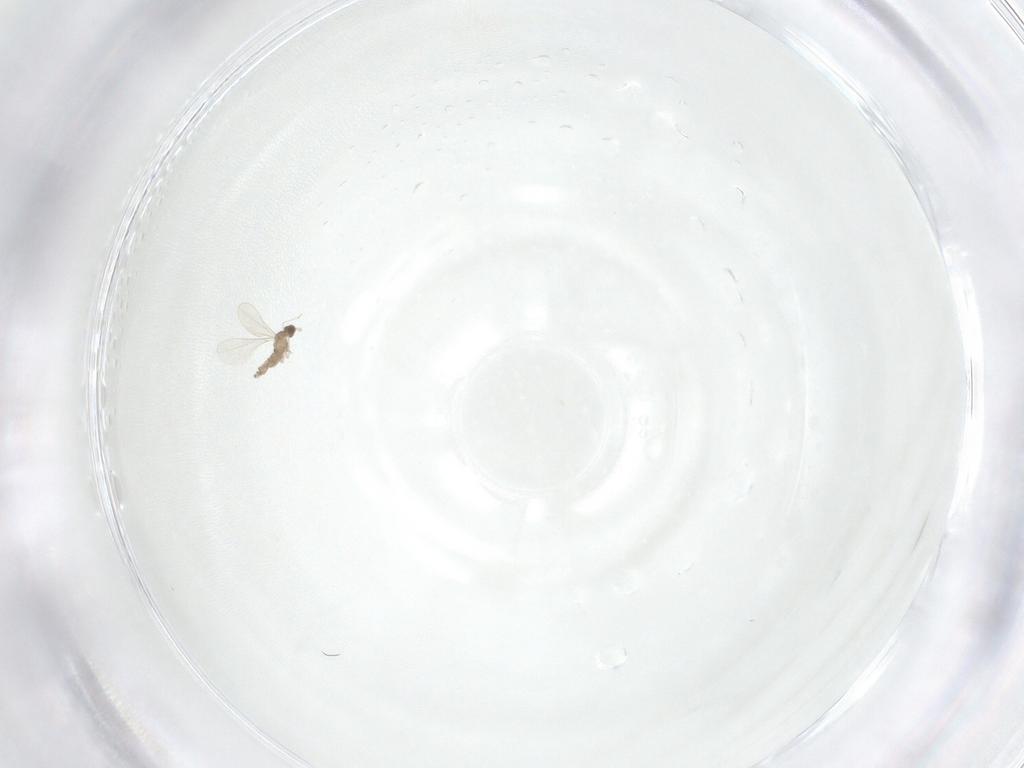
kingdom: Animalia
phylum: Arthropoda
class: Insecta
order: Diptera
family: Cecidomyiidae
